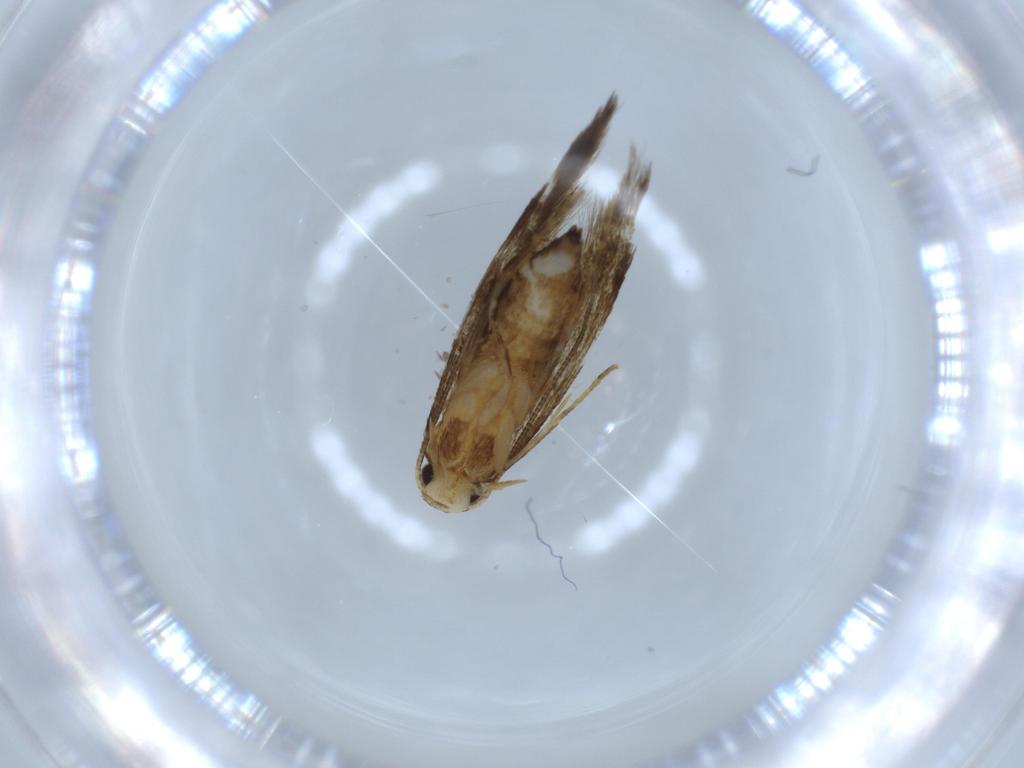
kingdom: Animalia
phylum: Arthropoda
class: Insecta
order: Lepidoptera
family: Tineidae
